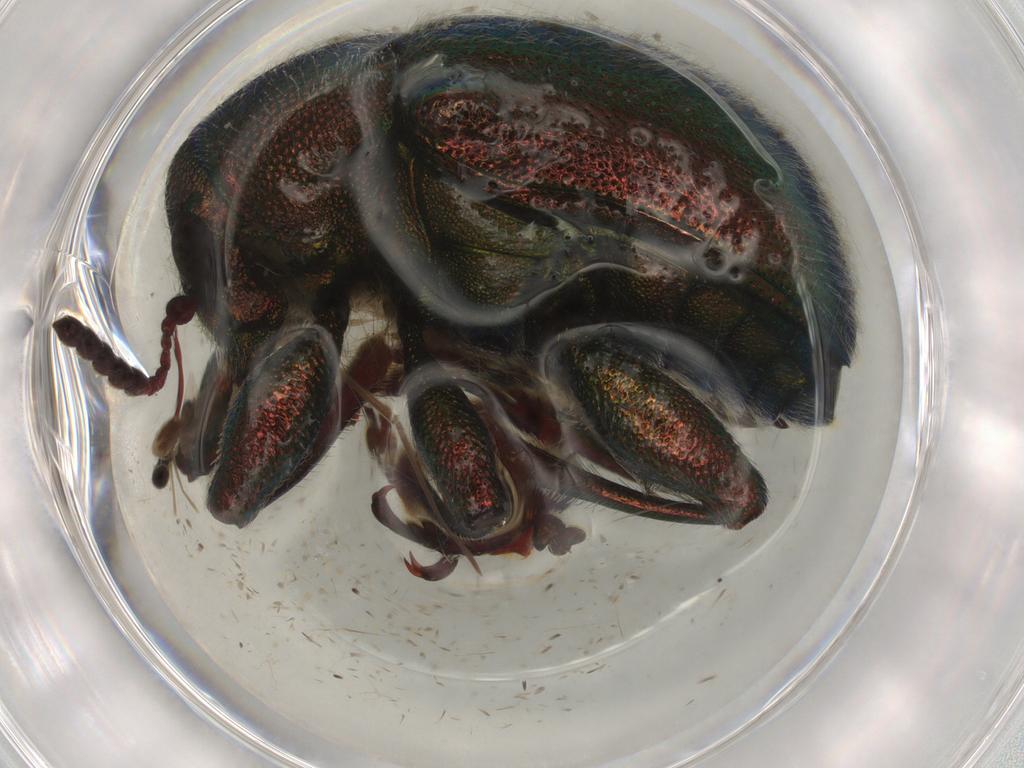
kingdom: Animalia
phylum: Arthropoda
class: Insecta
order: Coleoptera
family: Chrysomelidae
